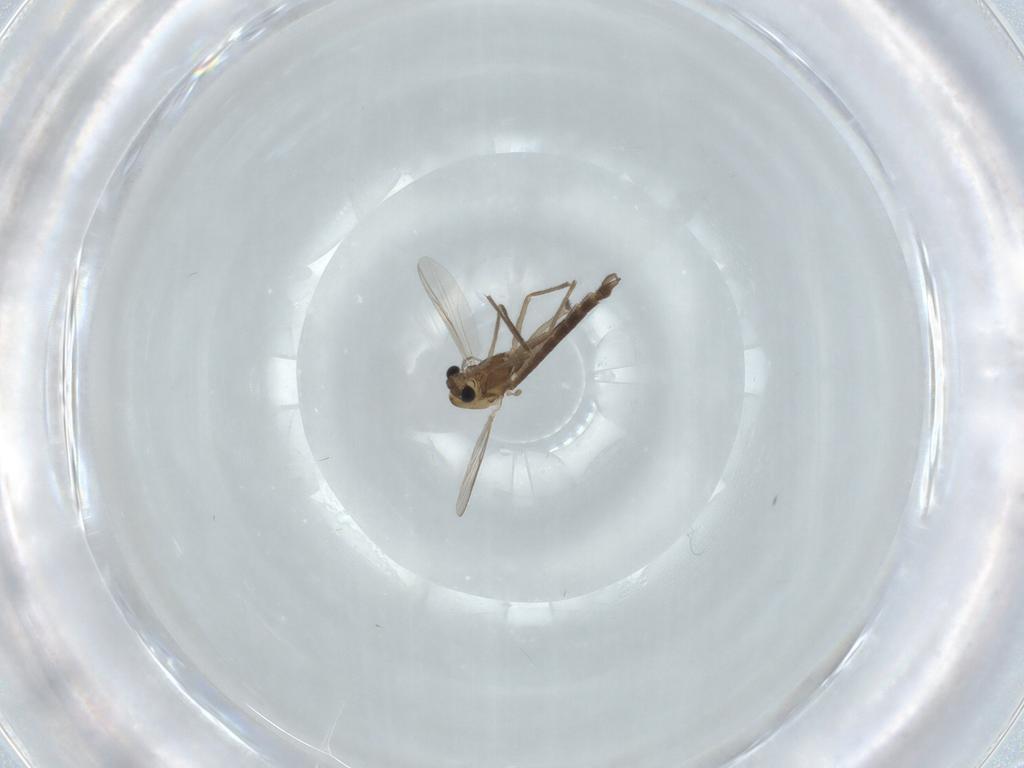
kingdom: Animalia
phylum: Arthropoda
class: Insecta
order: Diptera
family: Chironomidae
